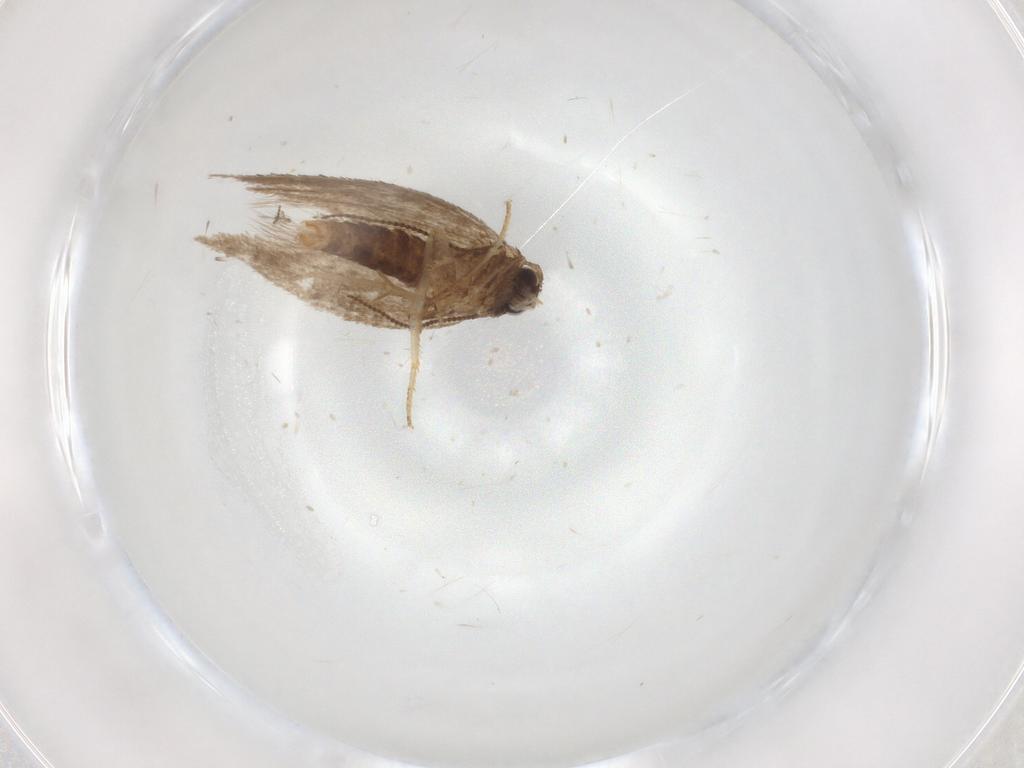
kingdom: Animalia
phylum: Arthropoda
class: Insecta
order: Lepidoptera
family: Nepticulidae
